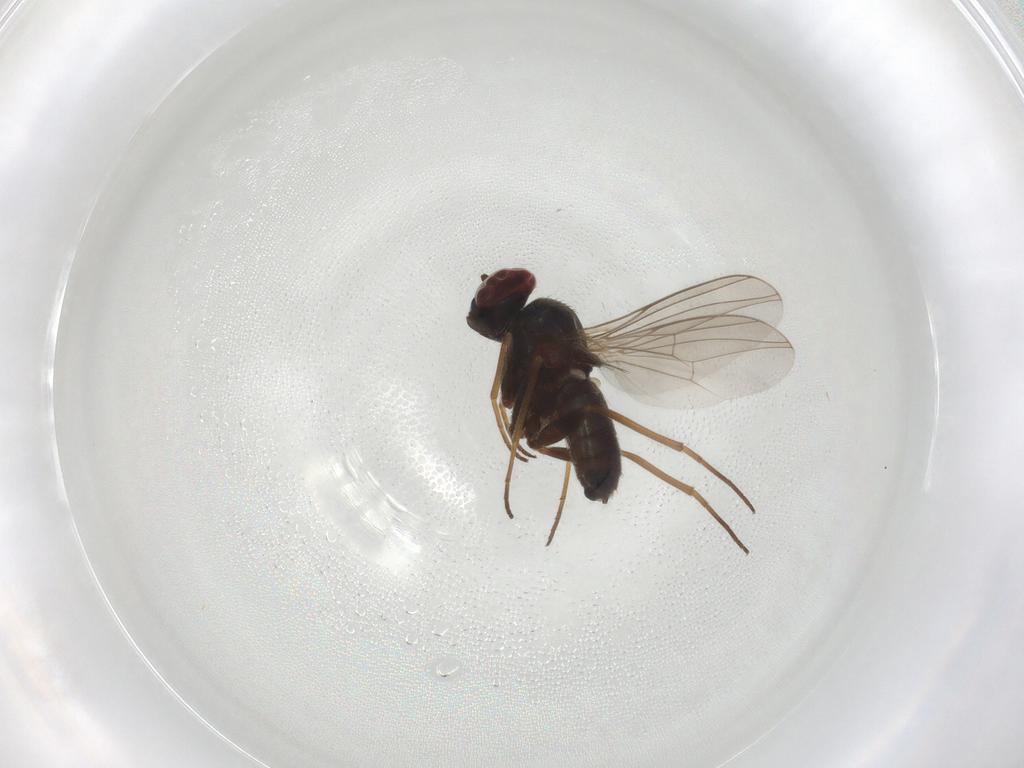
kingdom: Animalia
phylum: Arthropoda
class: Insecta
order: Diptera
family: Dolichopodidae
